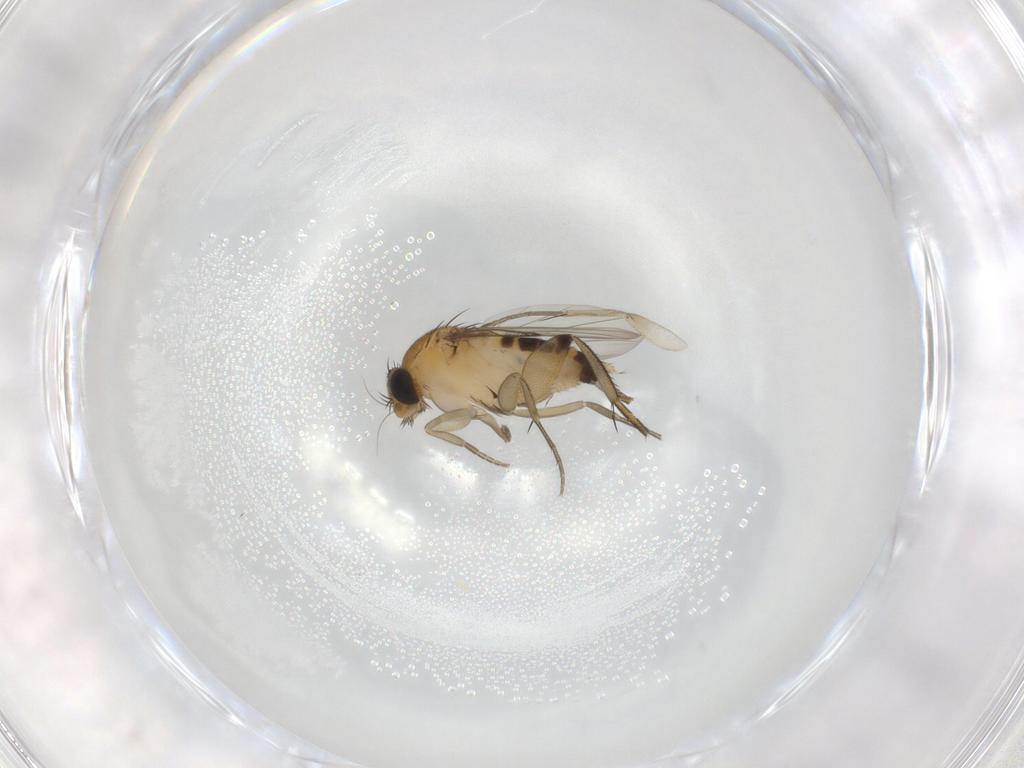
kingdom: Animalia
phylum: Arthropoda
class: Insecta
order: Diptera
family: Phoridae
